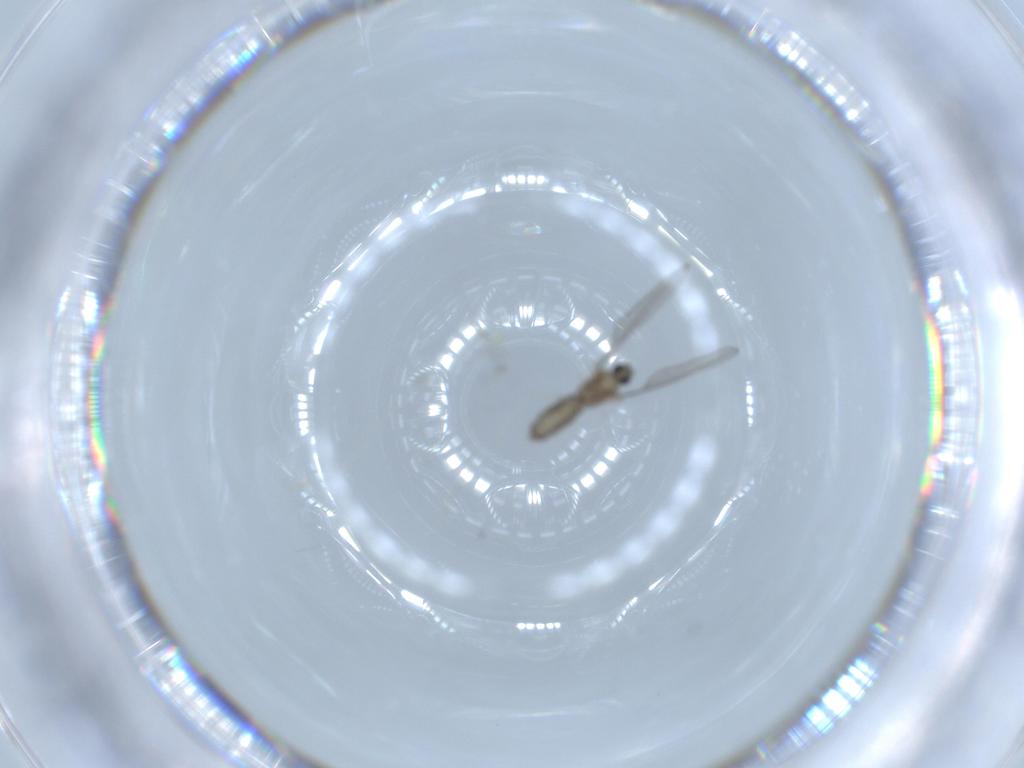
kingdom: Animalia
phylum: Arthropoda
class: Insecta
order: Diptera
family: Cecidomyiidae
